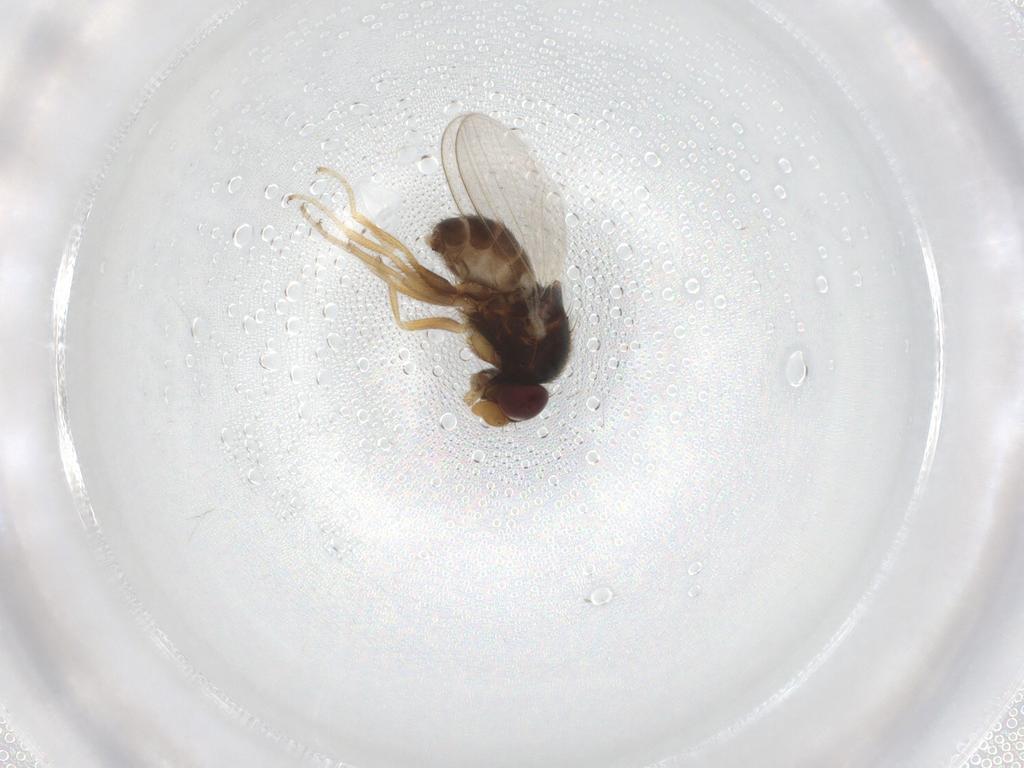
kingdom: Animalia
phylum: Arthropoda
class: Insecta
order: Diptera
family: Milichiidae
